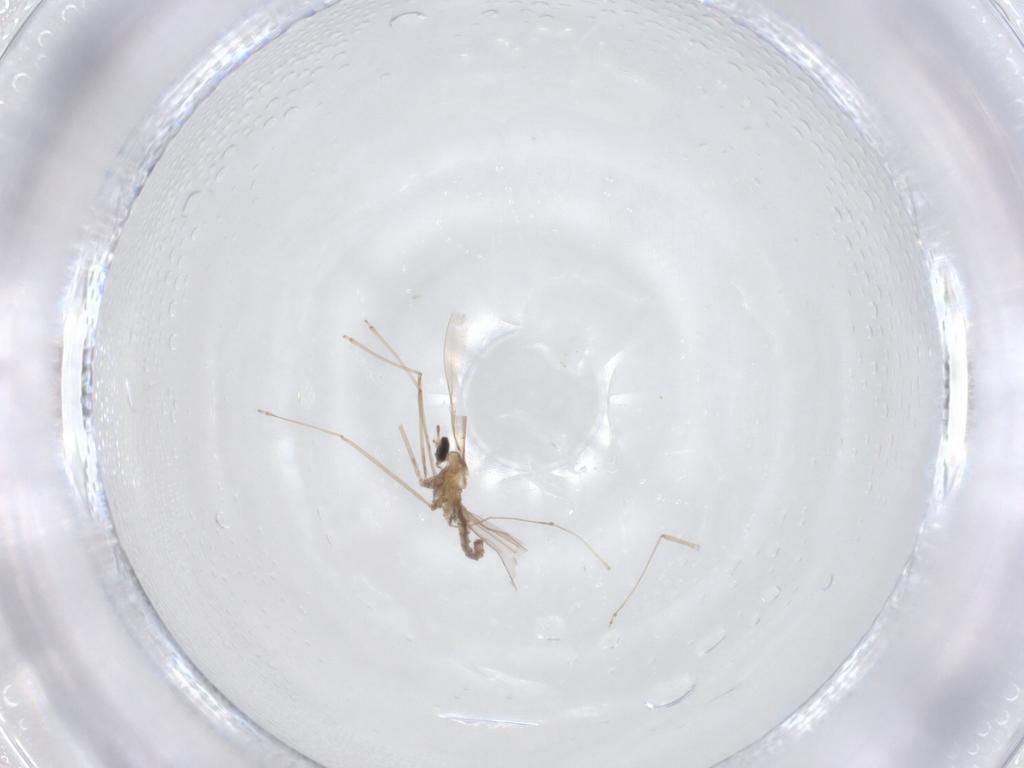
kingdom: Animalia
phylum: Arthropoda
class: Insecta
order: Diptera
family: Cecidomyiidae
